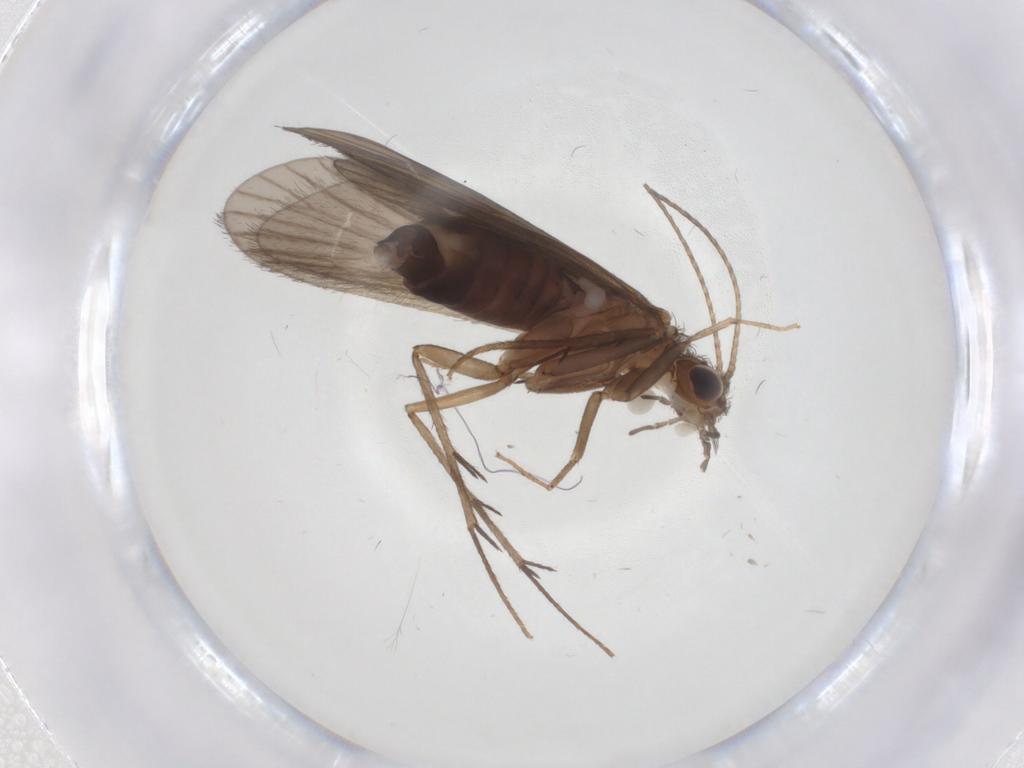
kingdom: Animalia
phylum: Arthropoda
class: Insecta
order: Trichoptera
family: Philopotamidae
